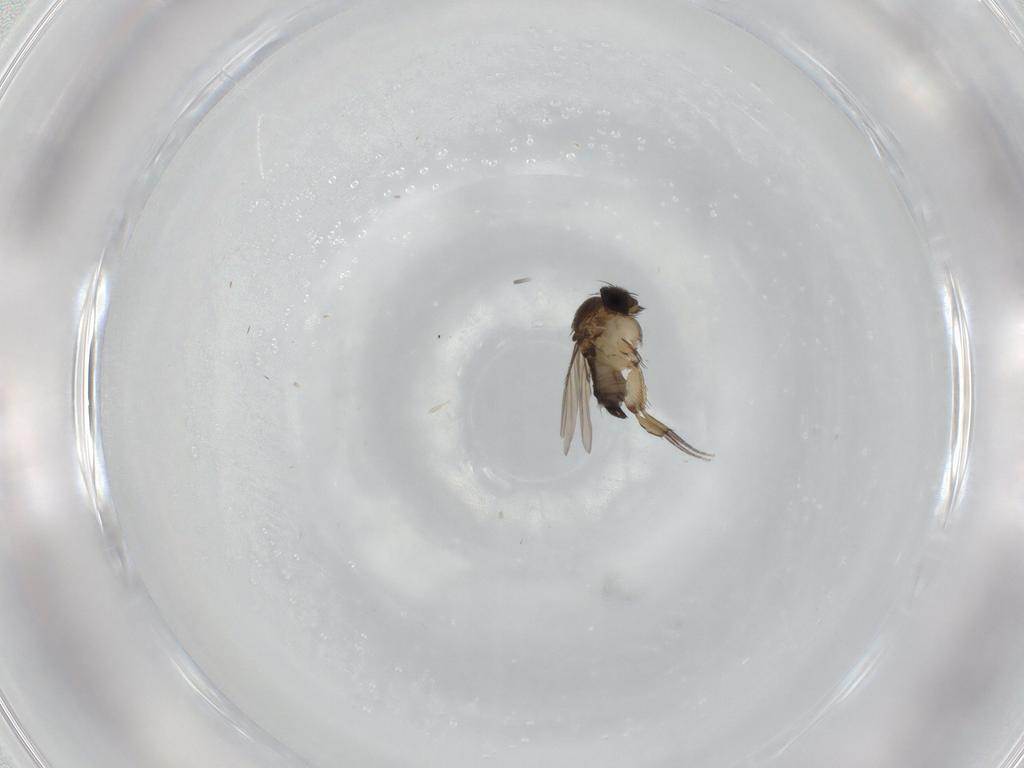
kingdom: Animalia
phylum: Arthropoda
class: Insecta
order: Diptera
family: Phoridae
